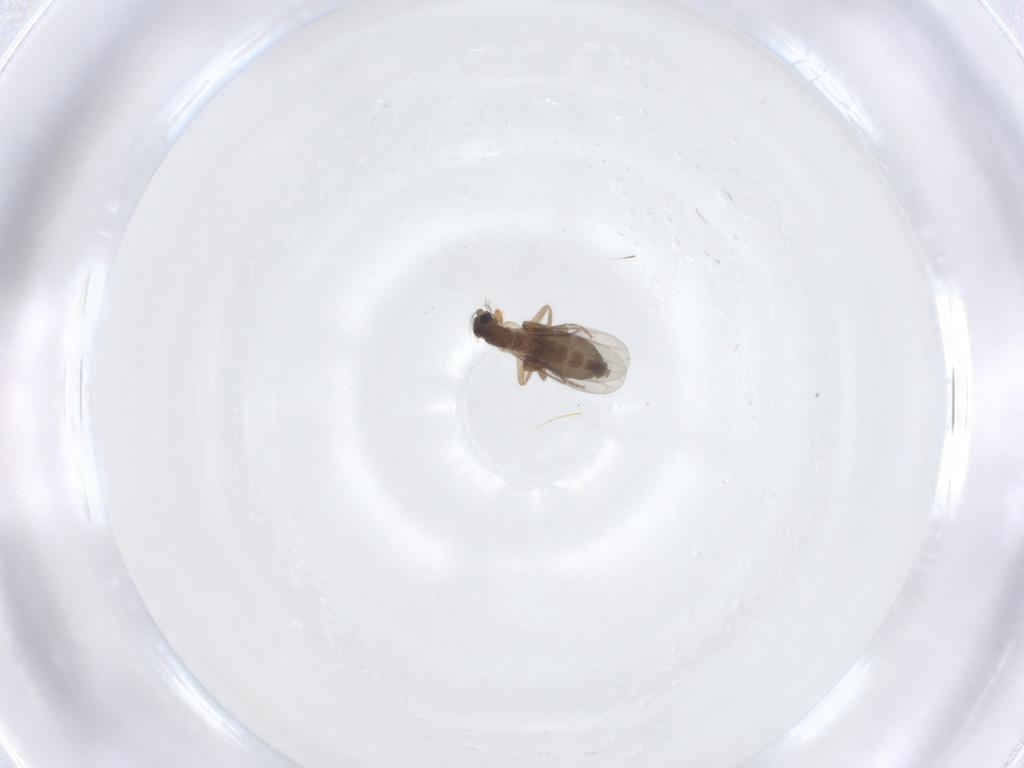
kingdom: Animalia
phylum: Arthropoda
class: Insecta
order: Diptera
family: Phoridae
